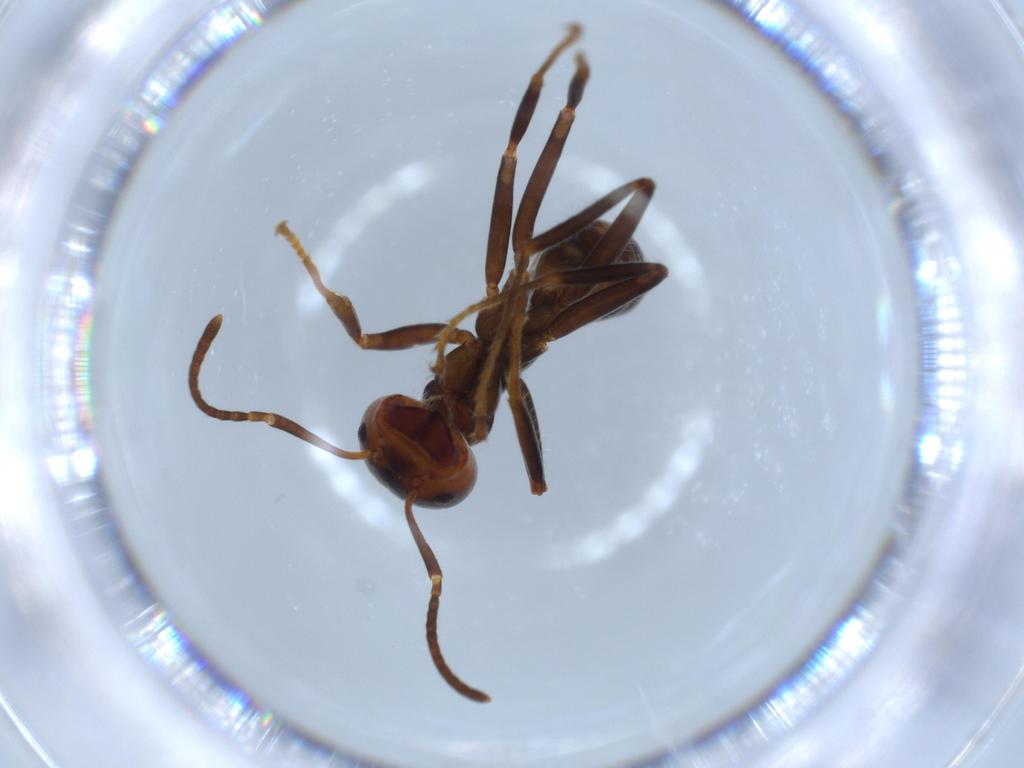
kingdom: Animalia
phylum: Arthropoda
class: Insecta
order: Hymenoptera
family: Formicidae
